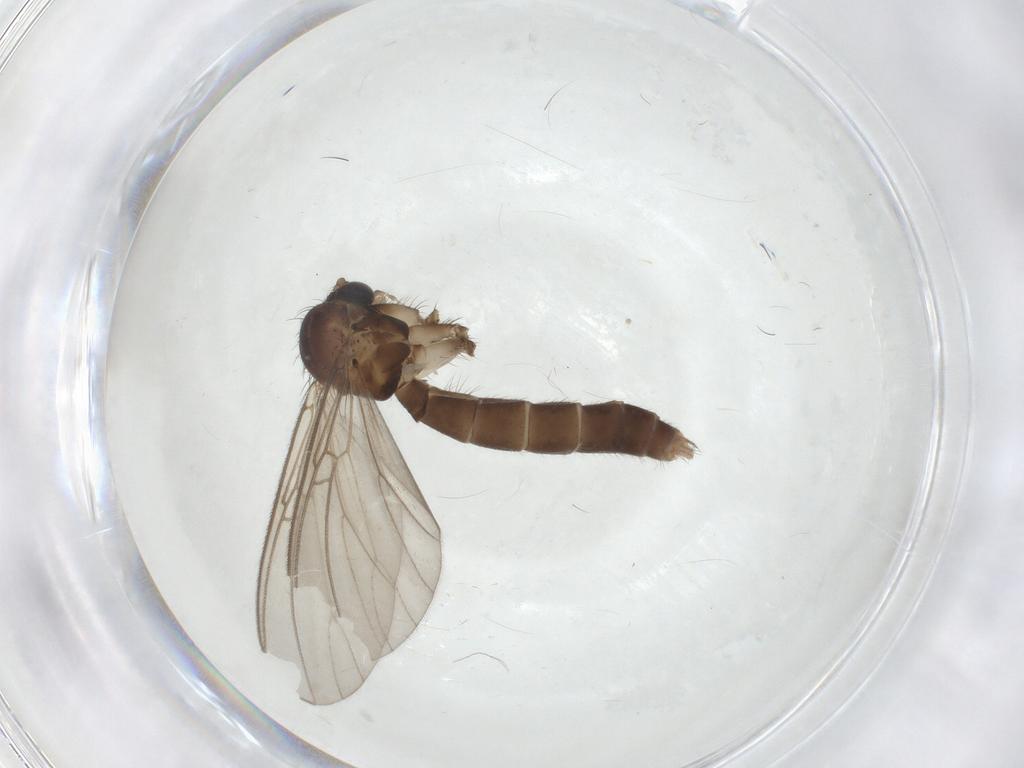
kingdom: Animalia
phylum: Arthropoda
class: Insecta
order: Diptera
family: Mycetophilidae
